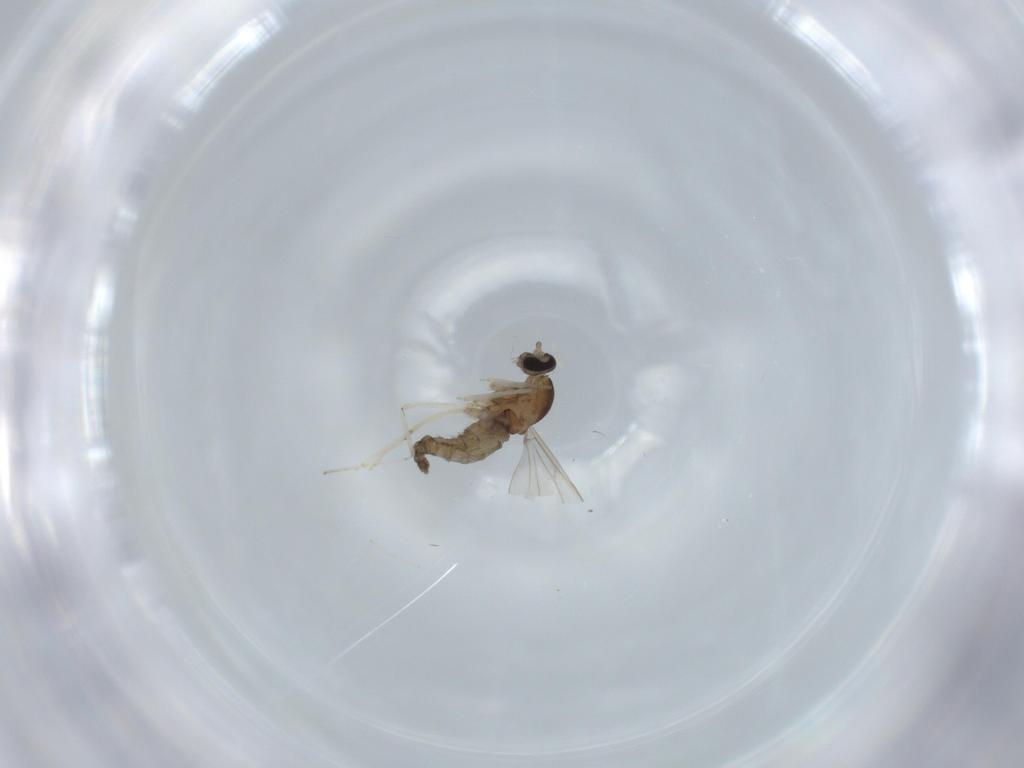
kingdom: Animalia
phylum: Arthropoda
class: Insecta
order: Diptera
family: Cecidomyiidae
